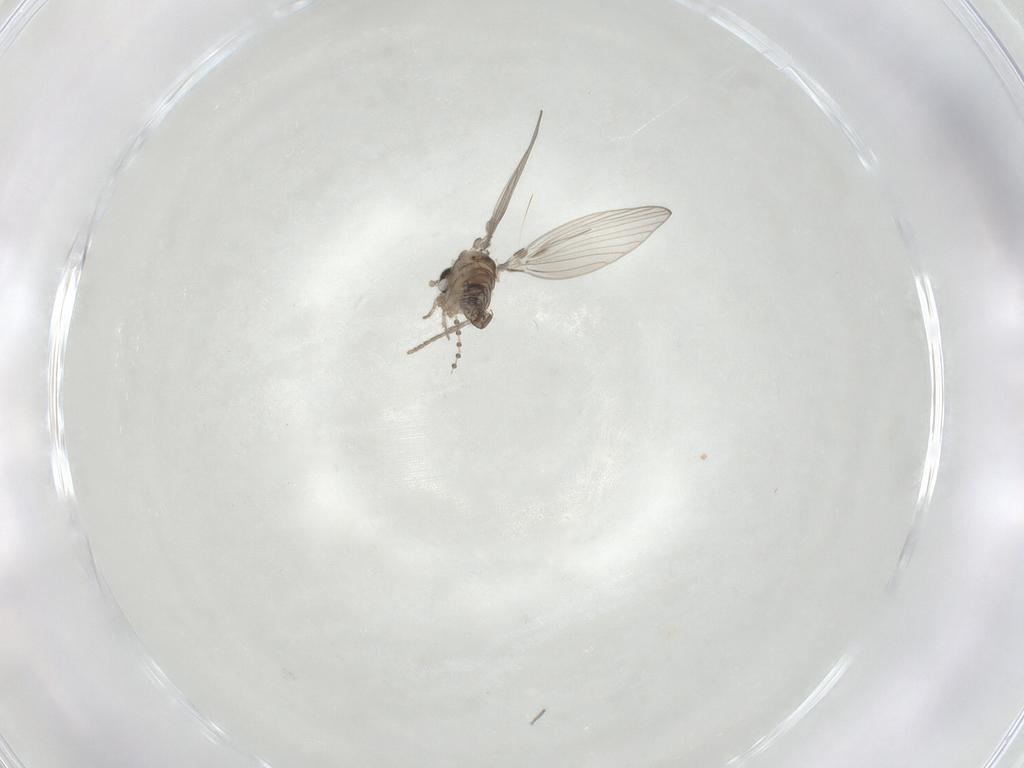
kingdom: Animalia
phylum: Arthropoda
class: Insecta
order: Diptera
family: Psychodidae
